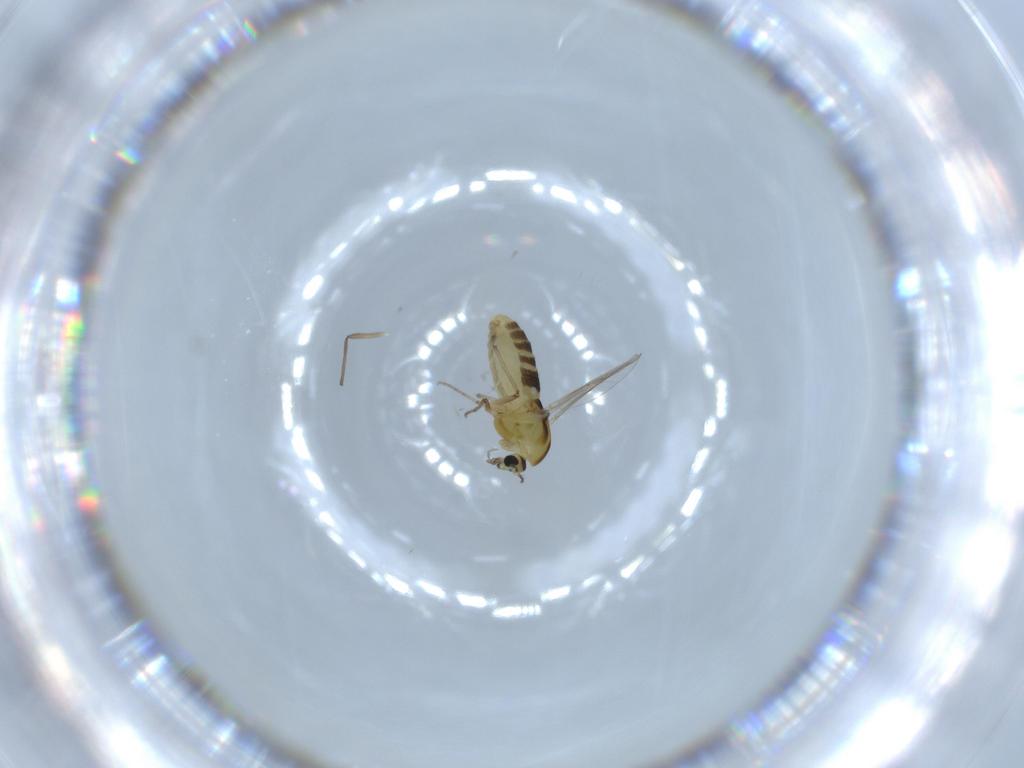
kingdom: Animalia
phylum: Arthropoda
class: Insecta
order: Diptera
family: Chironomidae
